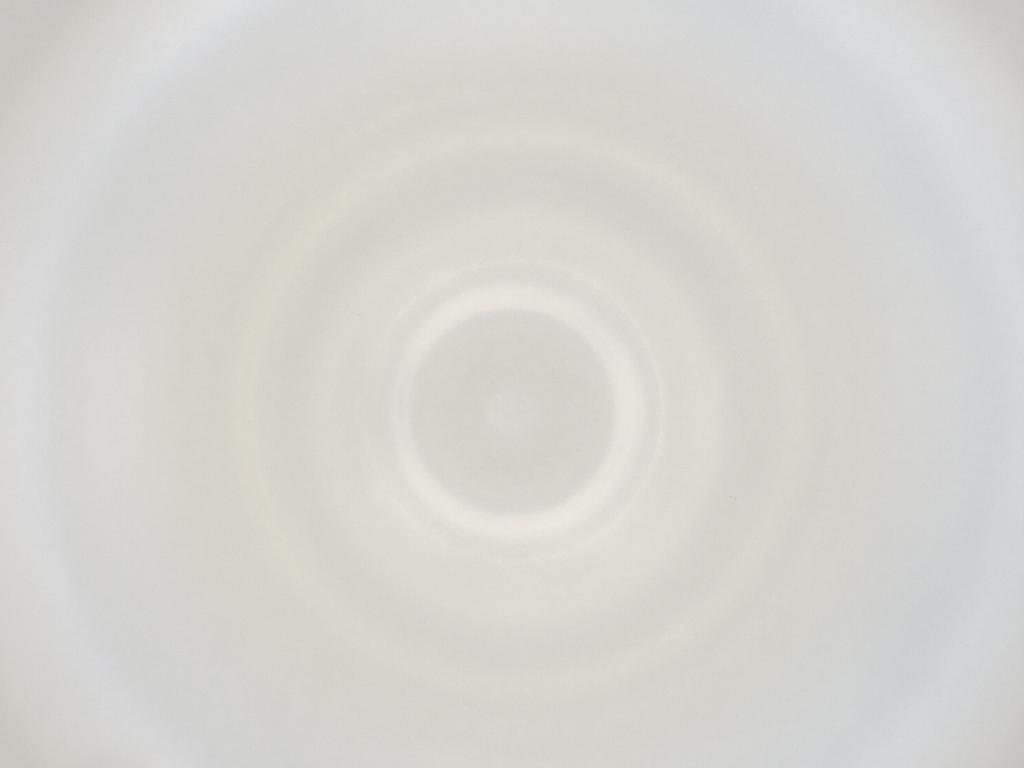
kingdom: Animalia
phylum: Arthropoda
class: Insecta
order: Diptera
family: Cecidomyiidae
